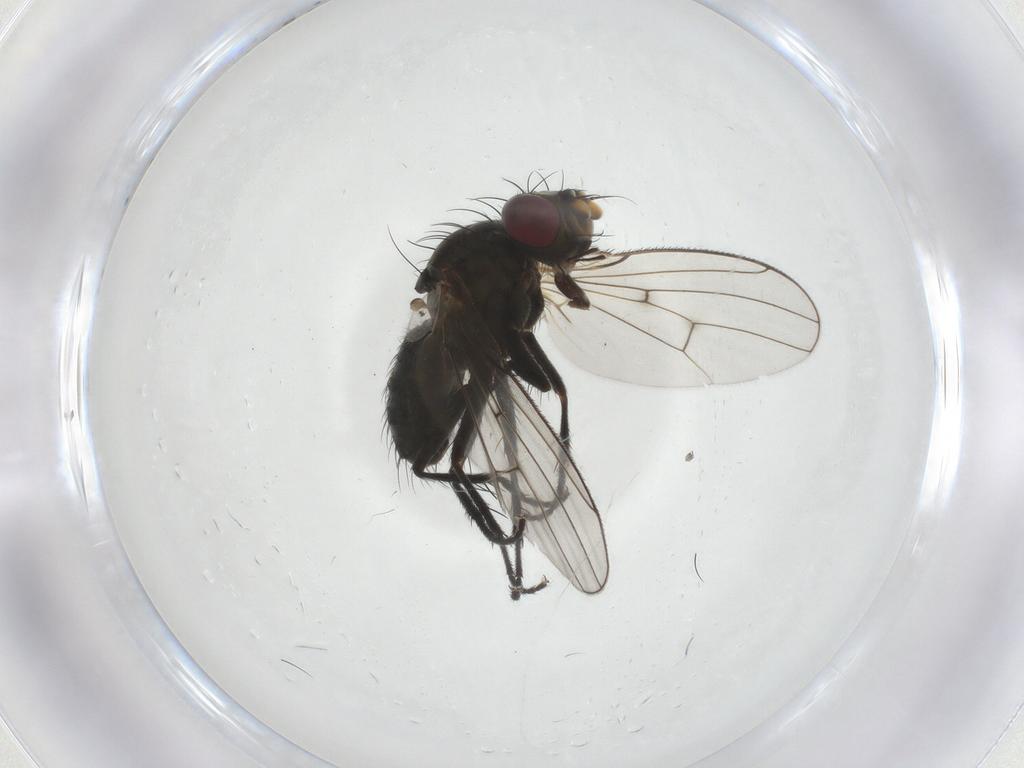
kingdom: Animalia
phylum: Arthropoda
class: Insecta
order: Diptera
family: Muscidae
